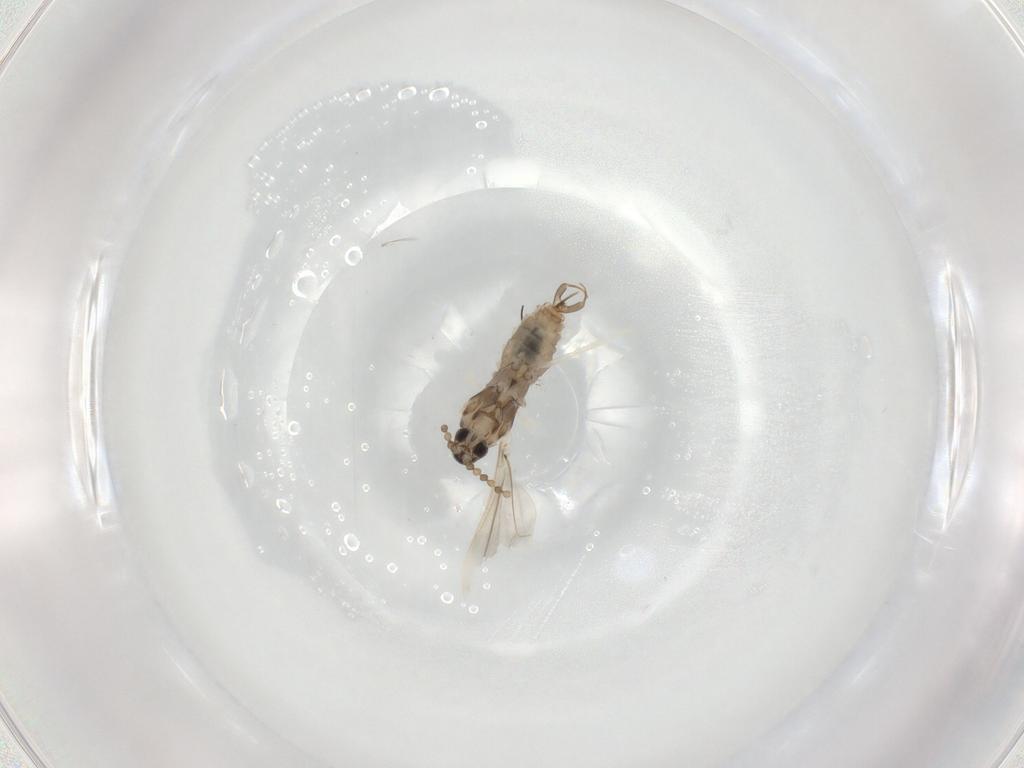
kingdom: Animalia
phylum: Arthropoda
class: Insecta
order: Diptera
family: Cecidomyiidae
